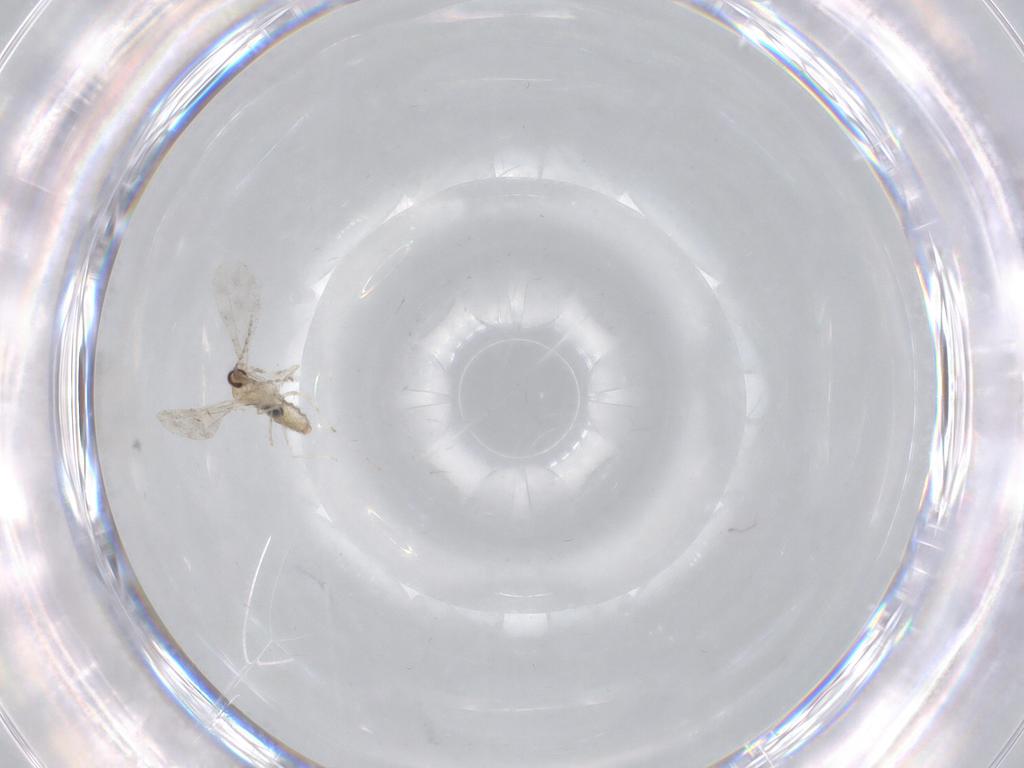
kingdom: Animalia
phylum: Arthropoda
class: Insecta
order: Diptera
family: Cecidomyiidae
